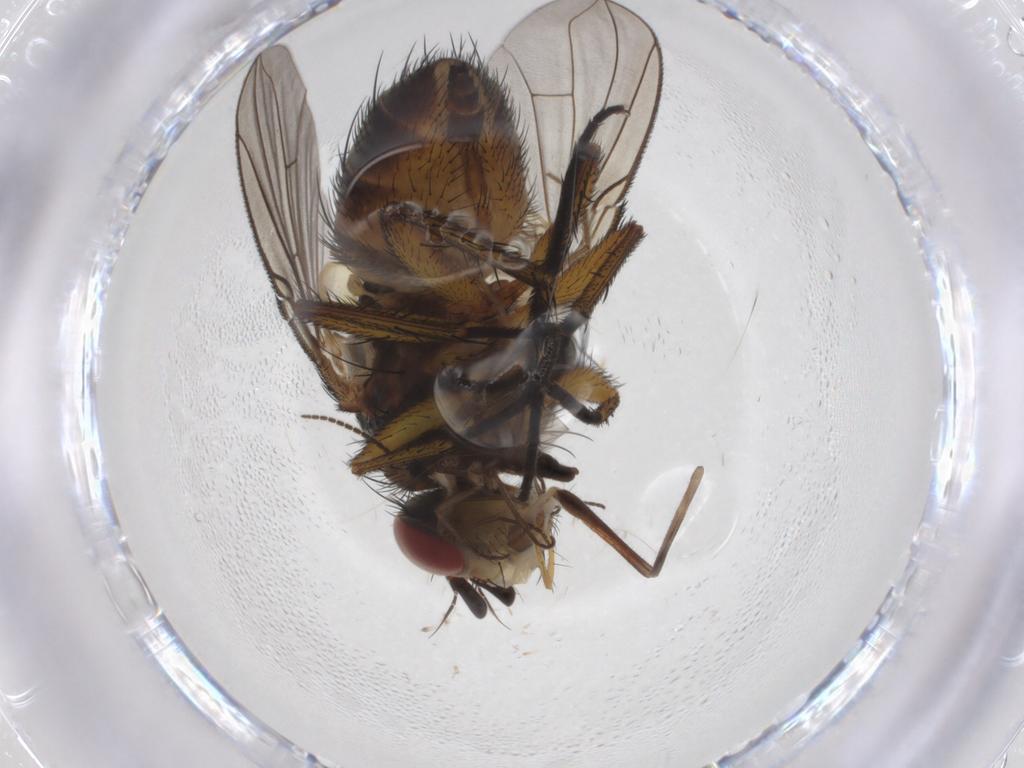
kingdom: Animalia
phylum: Arthropoda
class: Insecta
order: Diptera
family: Tachinidae
